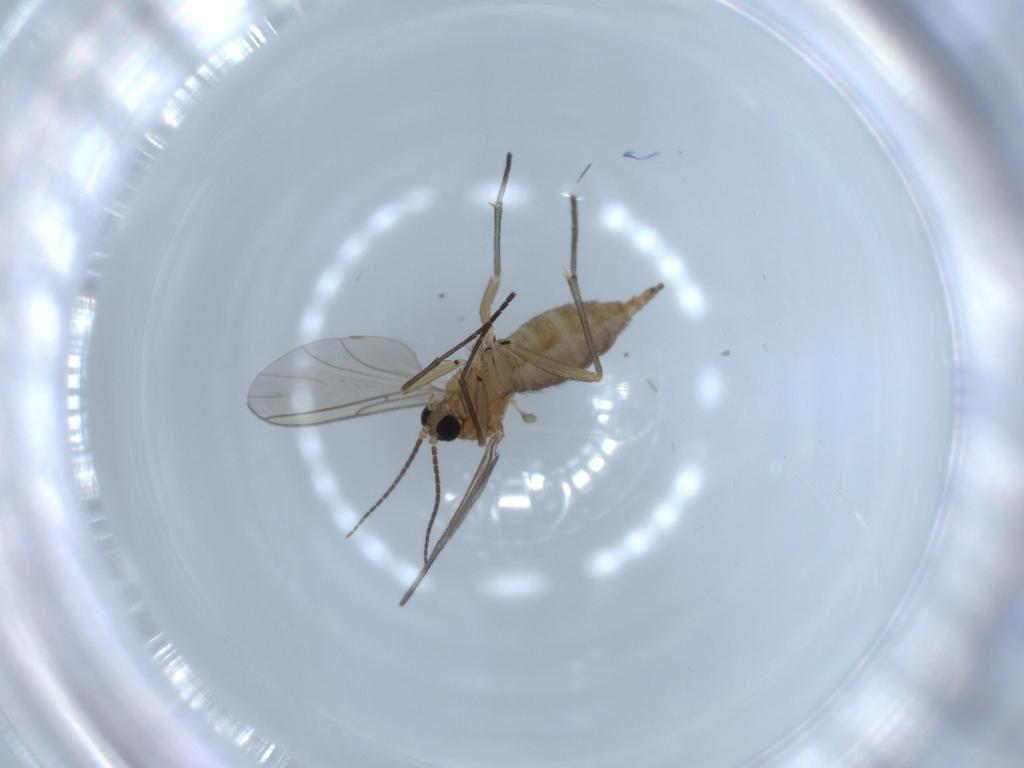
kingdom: Animalia
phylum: Arthropoda
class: Insecta
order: Diptera
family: Sciaridae
